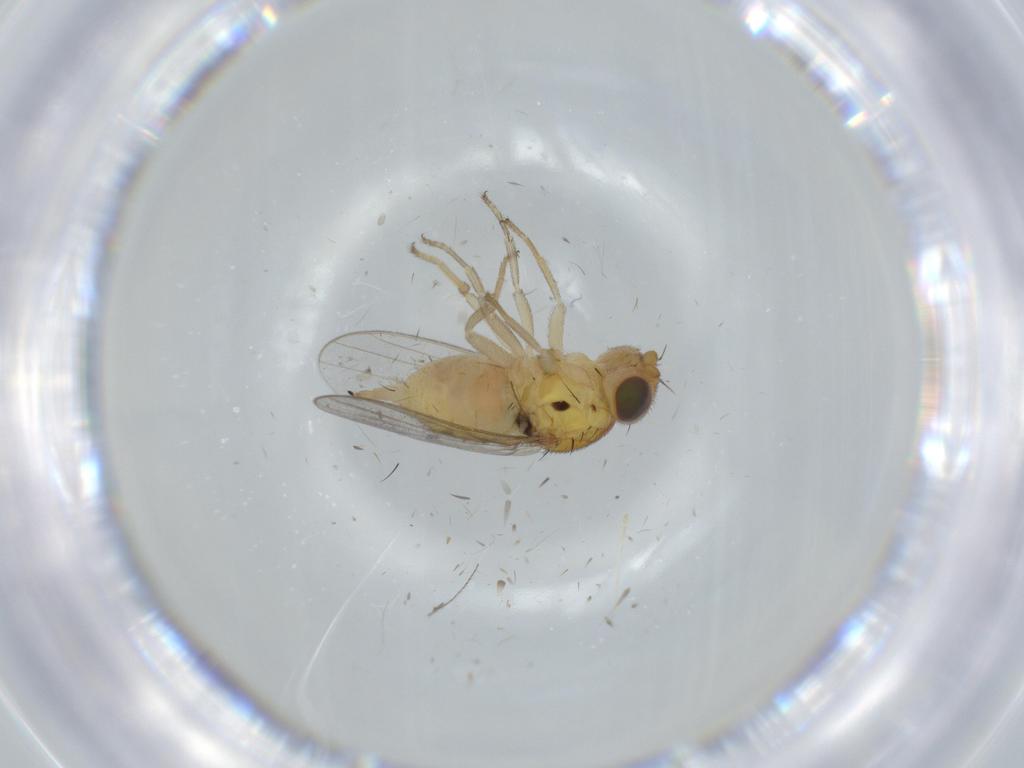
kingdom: Animalia
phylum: Arthropoda
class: Insecta
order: Diptera
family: Chloropidae
